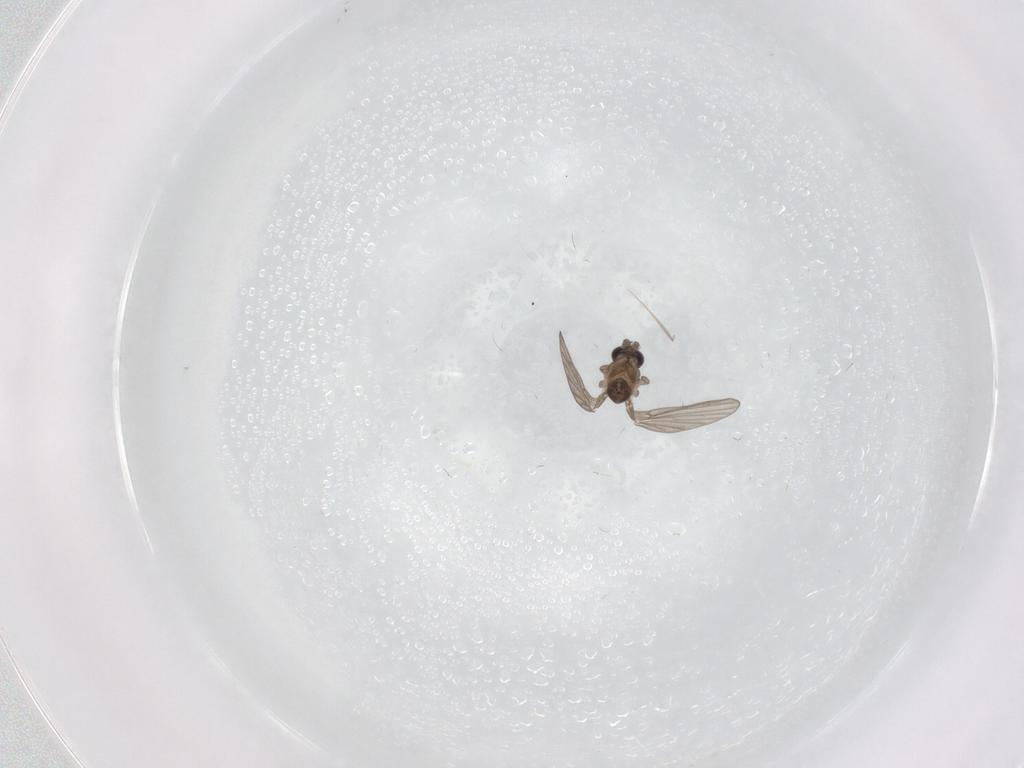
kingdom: Animalia
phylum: Arthropoda
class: Insecta
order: Diptera
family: Phoridae
